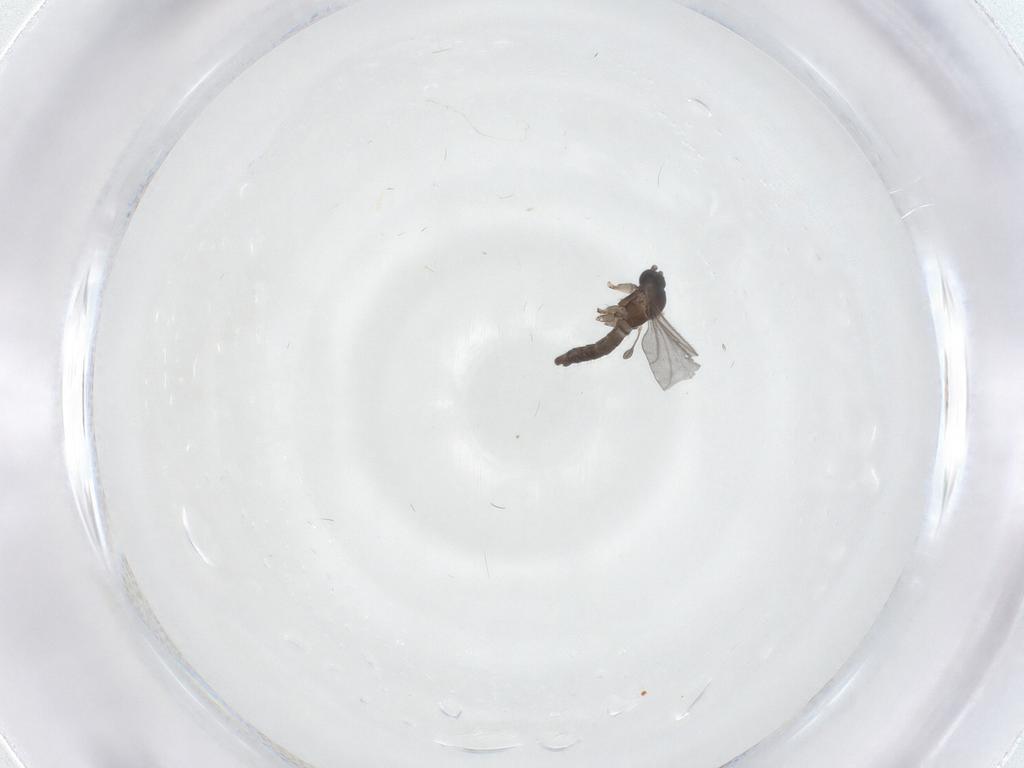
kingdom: Animalia
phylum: Arthropoda
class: Insecta
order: Diptera
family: Sciaridae
